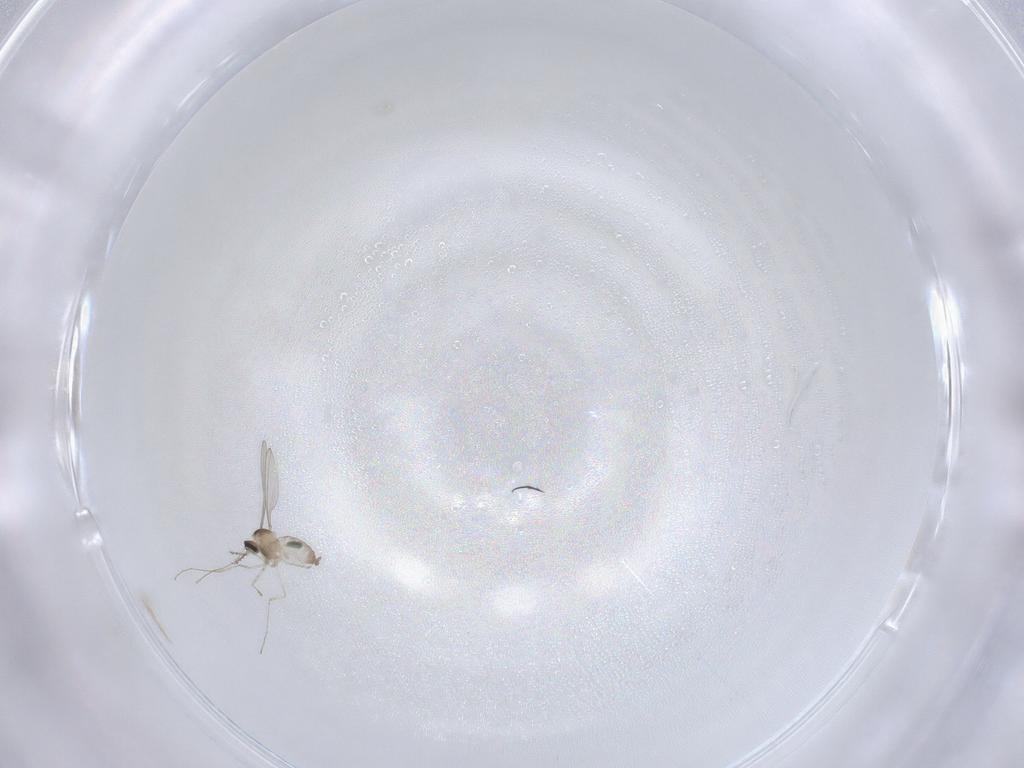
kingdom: Animalia
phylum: Arthropoda
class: Insecta
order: Diptera
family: Cecidomyiidae
